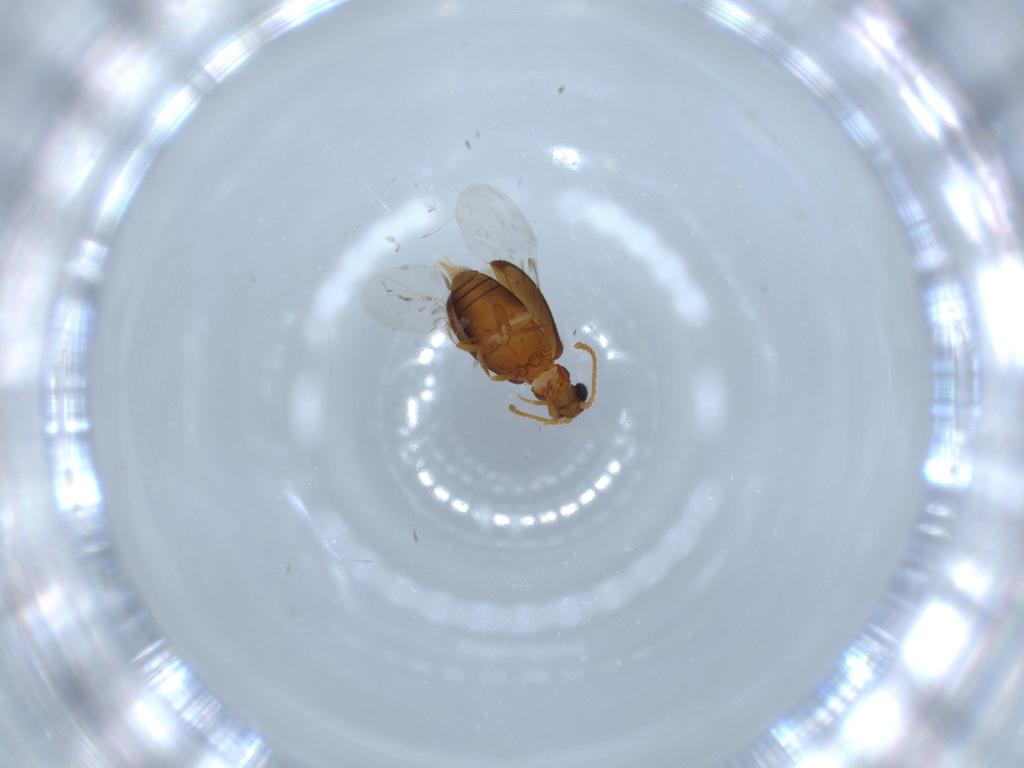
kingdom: Animalia
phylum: Arthropoda
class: Insecta
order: Coleoptera
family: Aderidae
